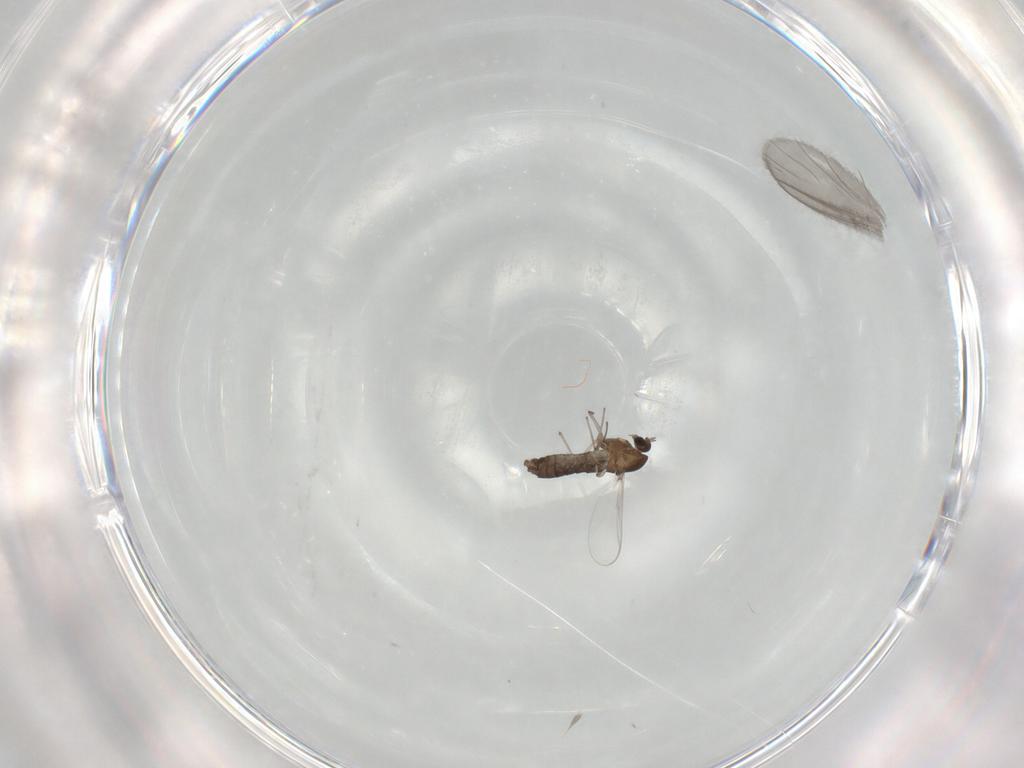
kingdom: Animalia
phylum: Arthropoda
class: Insecta
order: Diptera
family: Chironomidae
